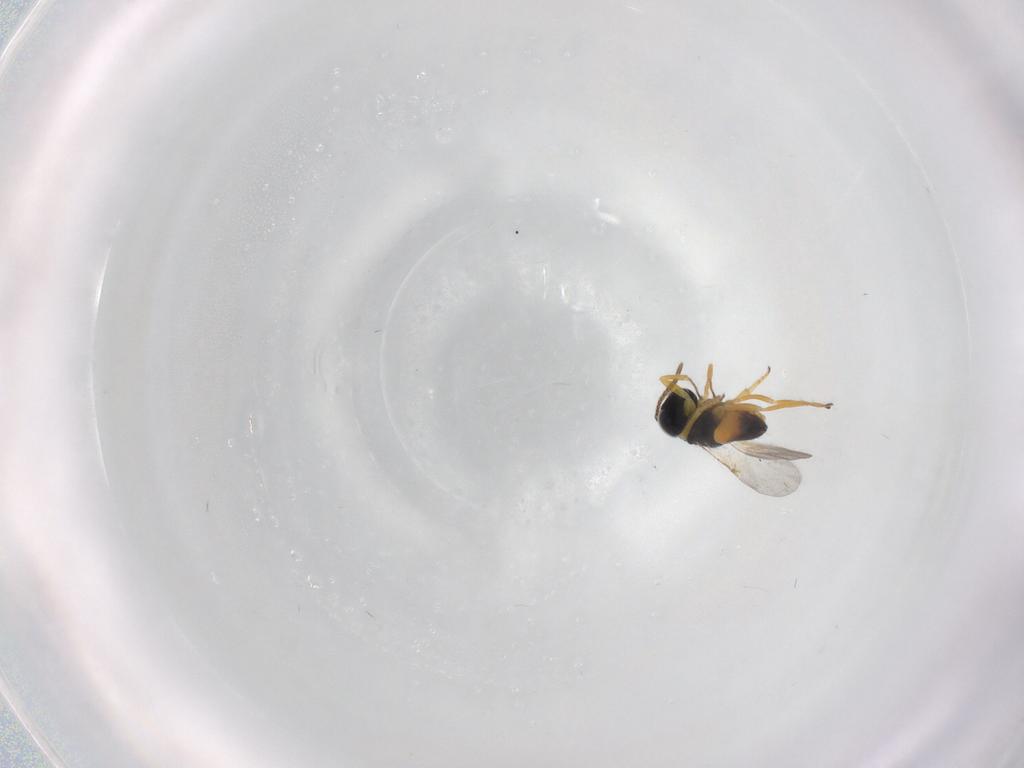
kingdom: Animalia
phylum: Arthropoda
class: Insecta
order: Hymenoptera
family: Encyrtidae
